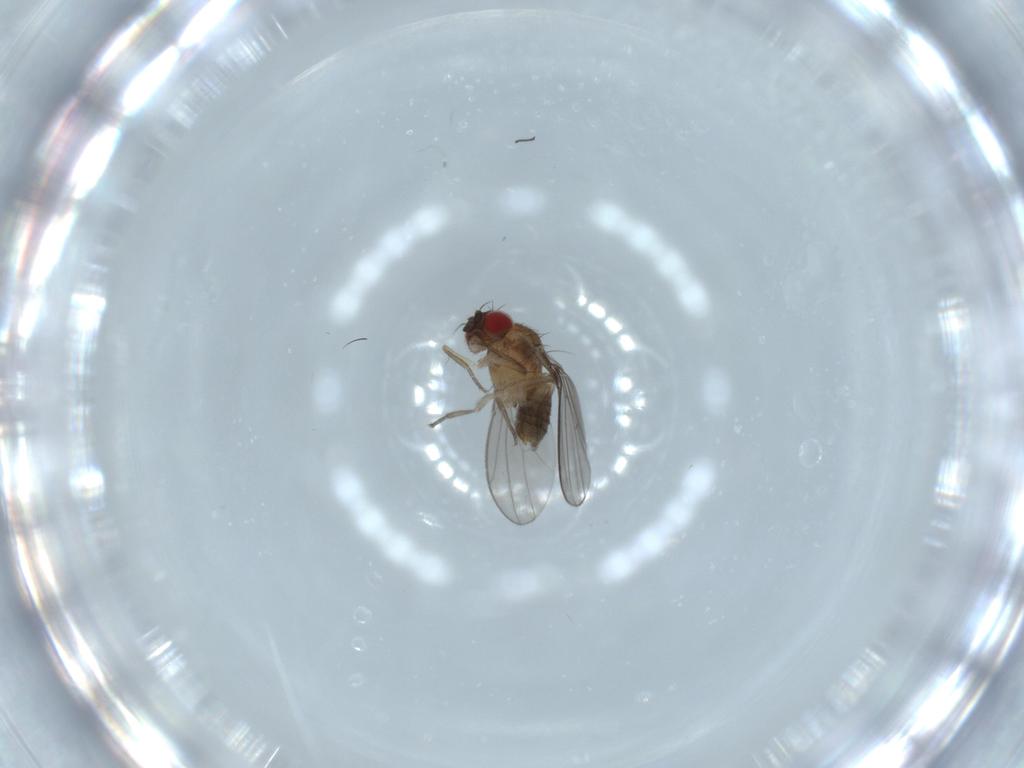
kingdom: Animalia
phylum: Arthropoda
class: Insecta
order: Diptera
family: Drosophilidae
